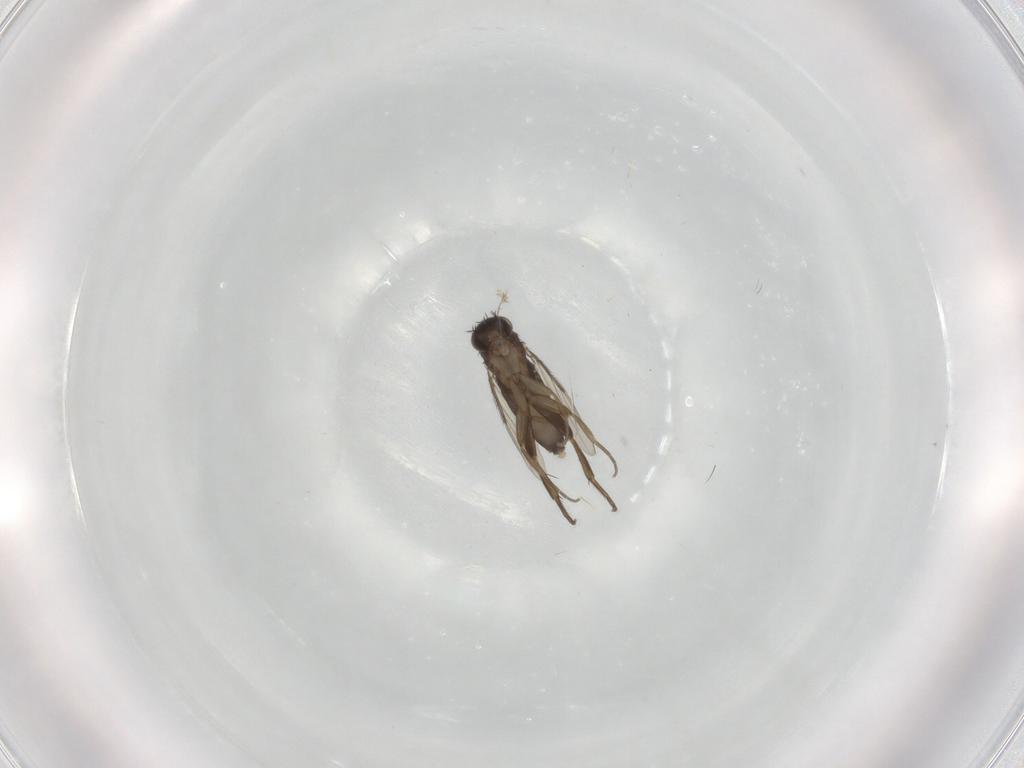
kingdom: Animalia
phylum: Arthropoda
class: Insecta
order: Diptera
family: Phoridae
